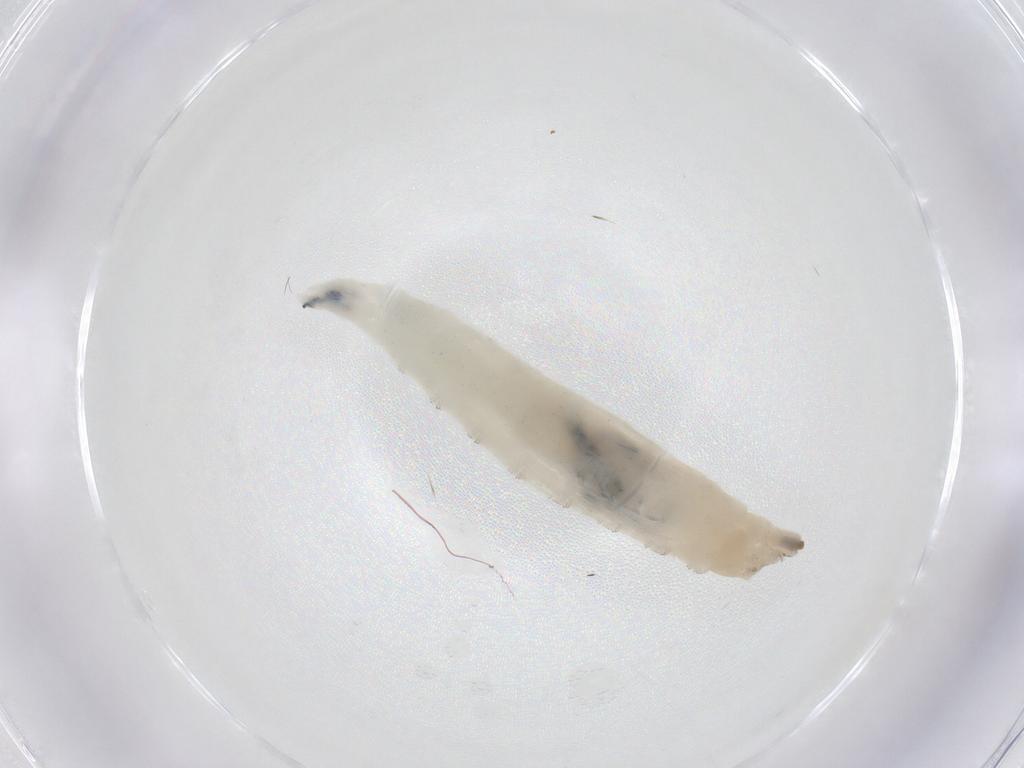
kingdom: Animalia
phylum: Arthropoda
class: Insecta
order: Diptera
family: Drosophilidae
